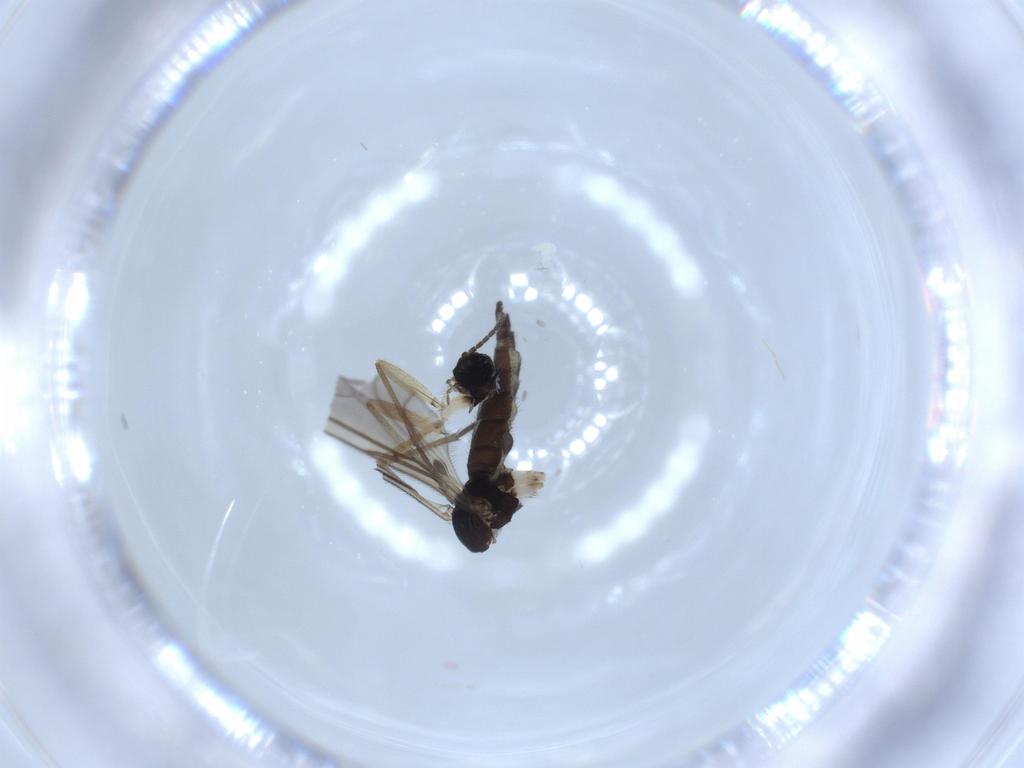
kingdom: Animalia
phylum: Arthropoda
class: Insecta
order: Diptera
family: Sciaridae
